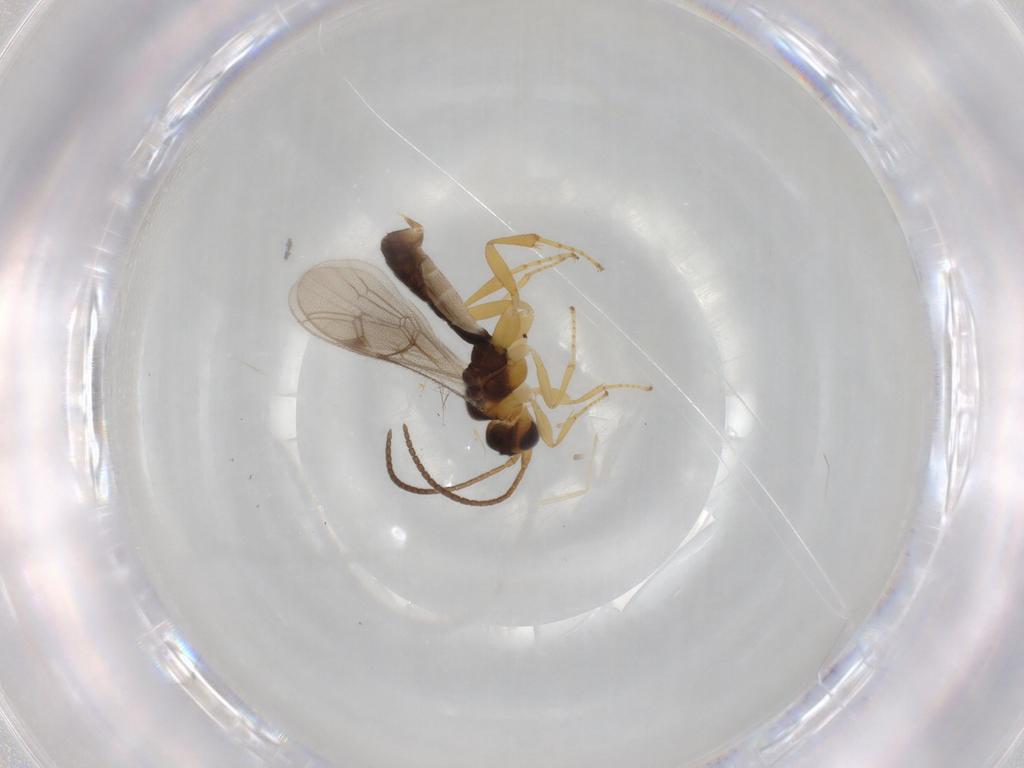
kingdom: Animalia
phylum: Arthropoda
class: Insecta
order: Hymenoptera
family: Ichneumonidae
